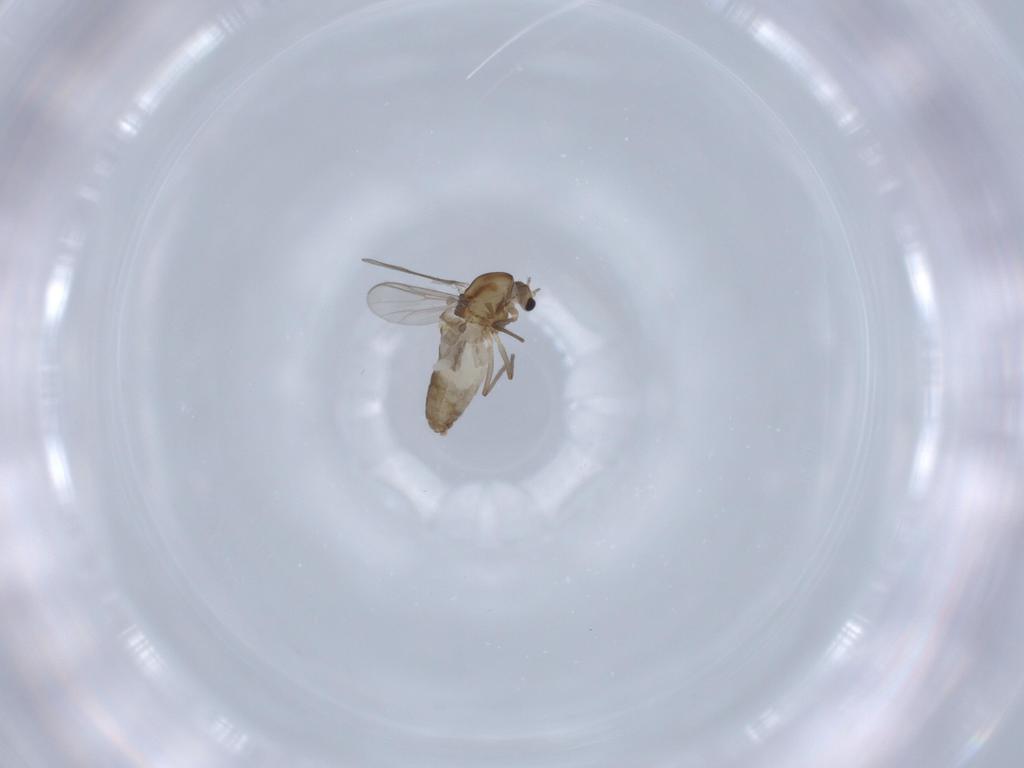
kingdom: Animalia
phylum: Arthropoda
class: Insecta
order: Diptera
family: Chironomidae
